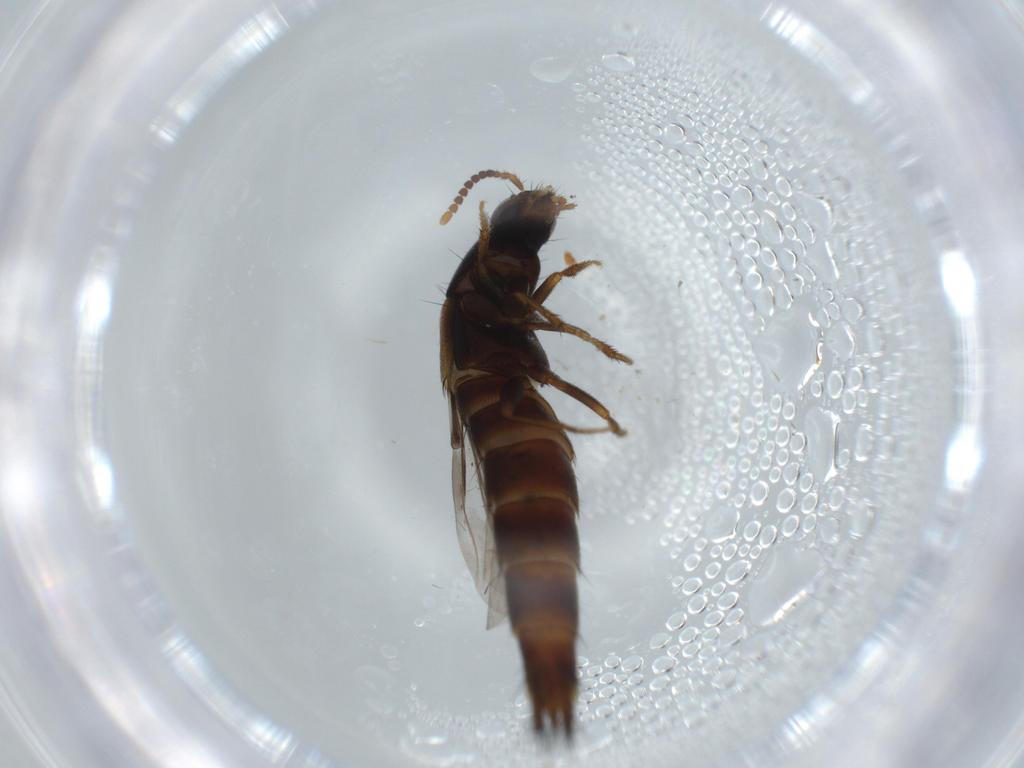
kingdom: Animalia
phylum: Arthropoda
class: Insecta
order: Coleoptera
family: Staphylinidae
